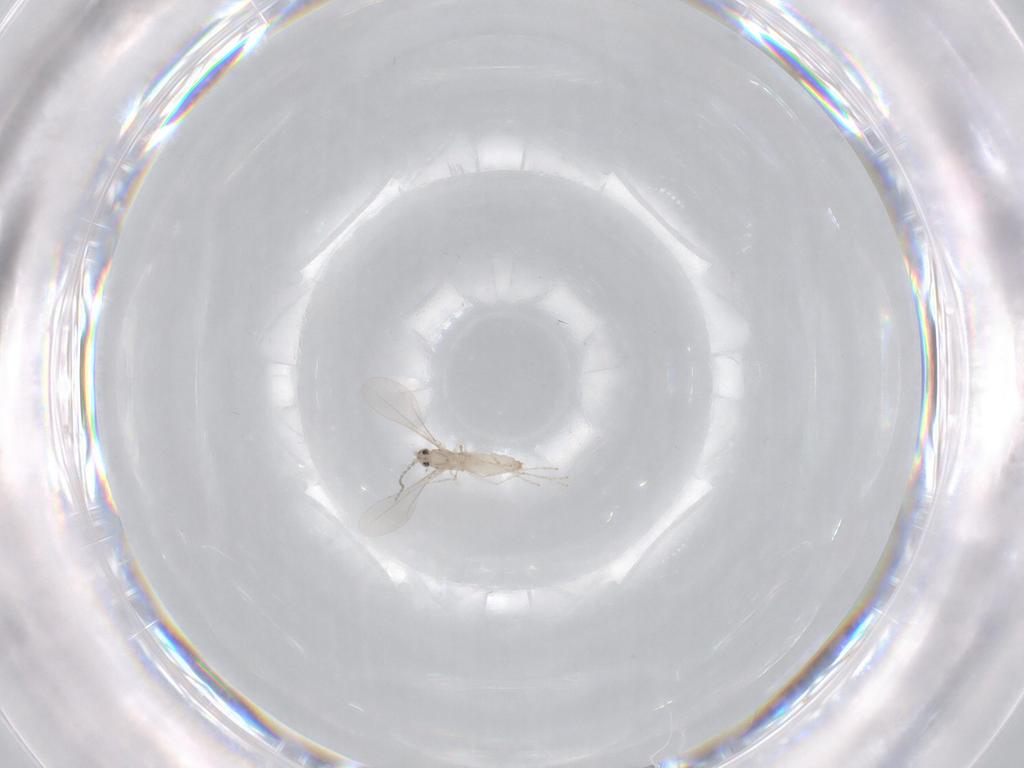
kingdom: Animalia
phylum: Arthropoda
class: Insecta
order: Diptera
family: Cecidomyiidae
